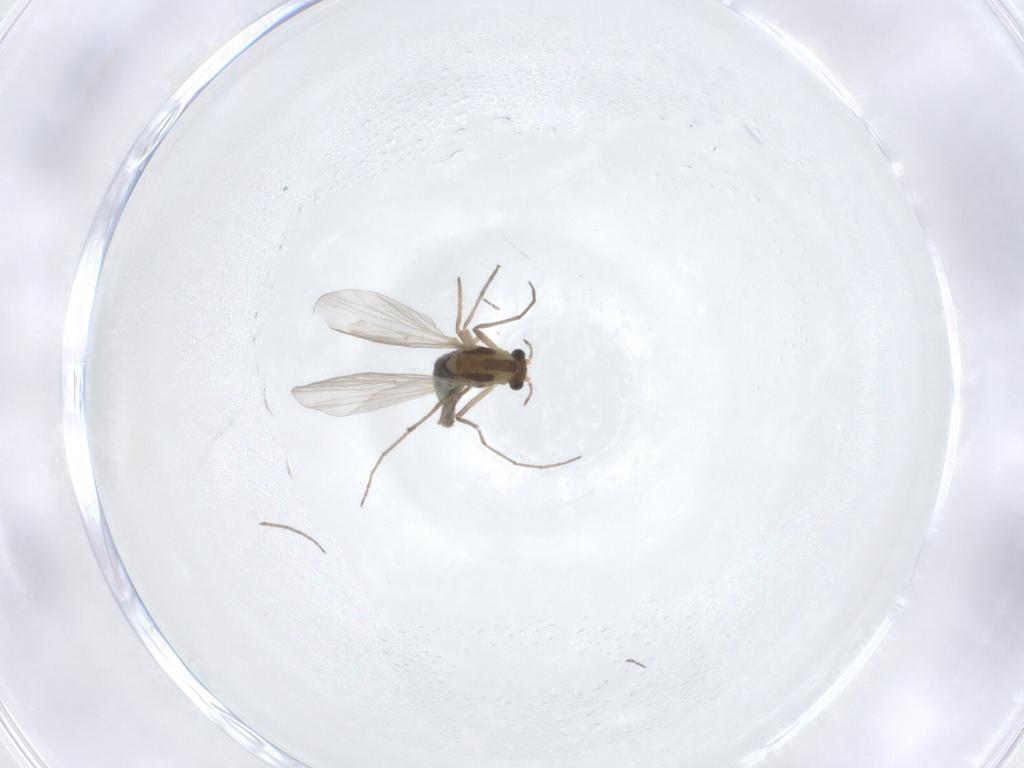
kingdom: Animalia
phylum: Arthropoda
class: Insecta
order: Diptera
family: Chironomidae
